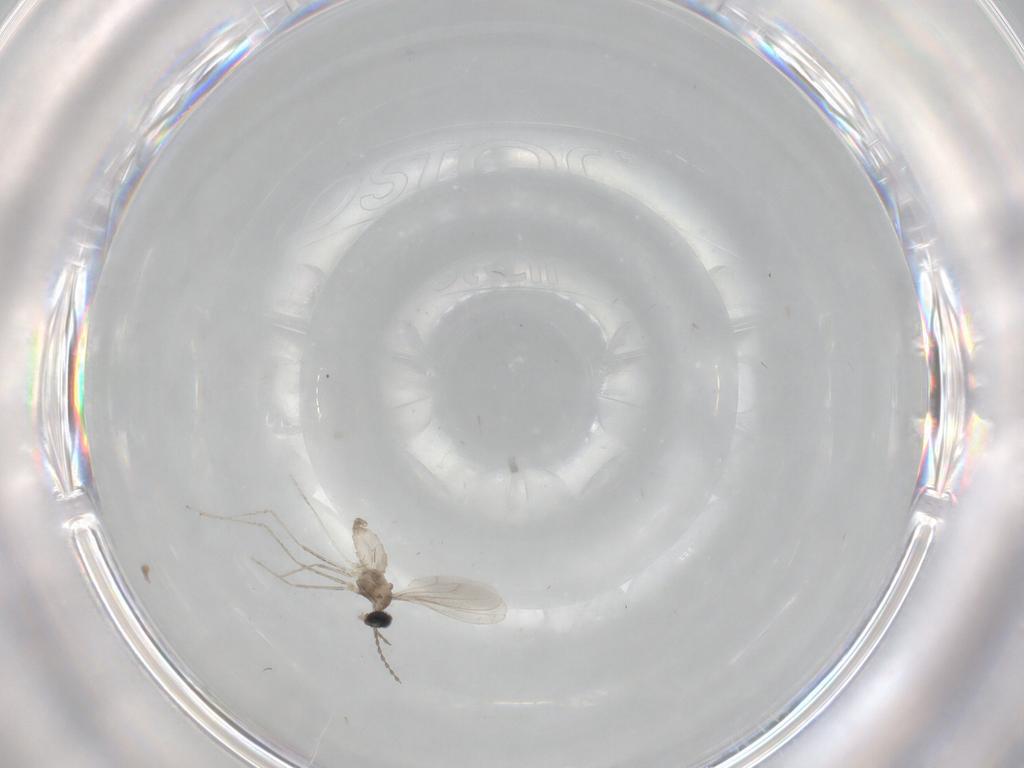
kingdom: Animalia
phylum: Arthropoda
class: Insecta
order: Diptera
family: Cecidomyiidae
